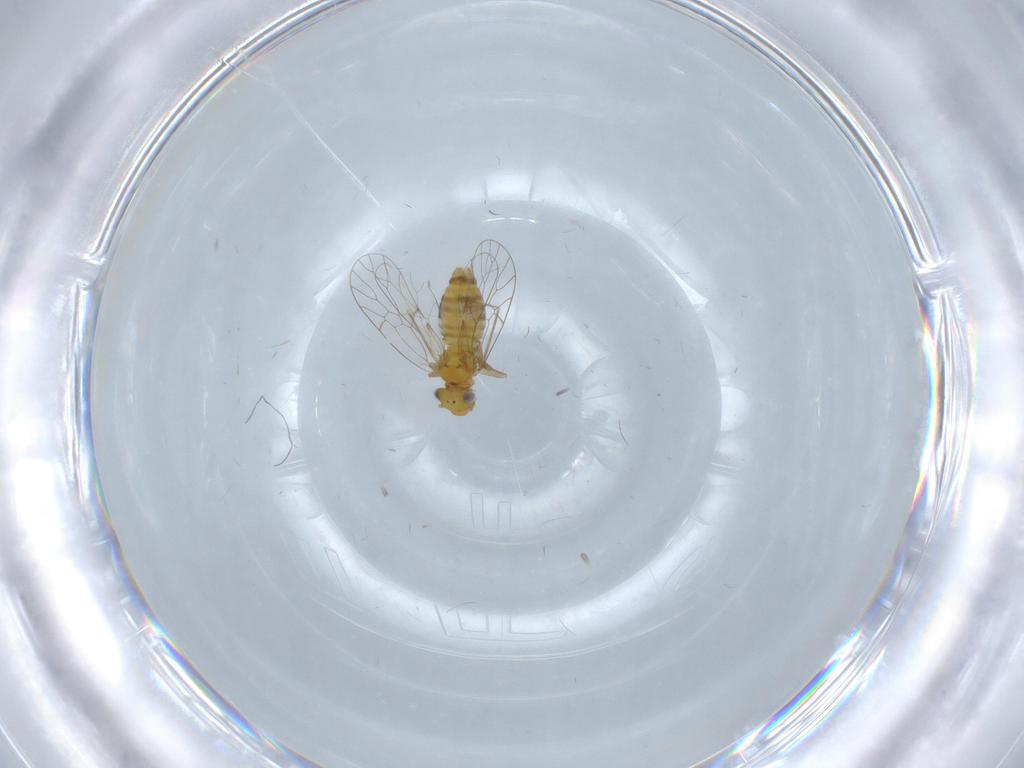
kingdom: Animalia
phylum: Arthropoda
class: Insecta
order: Psocodea
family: Prionoglarididae
